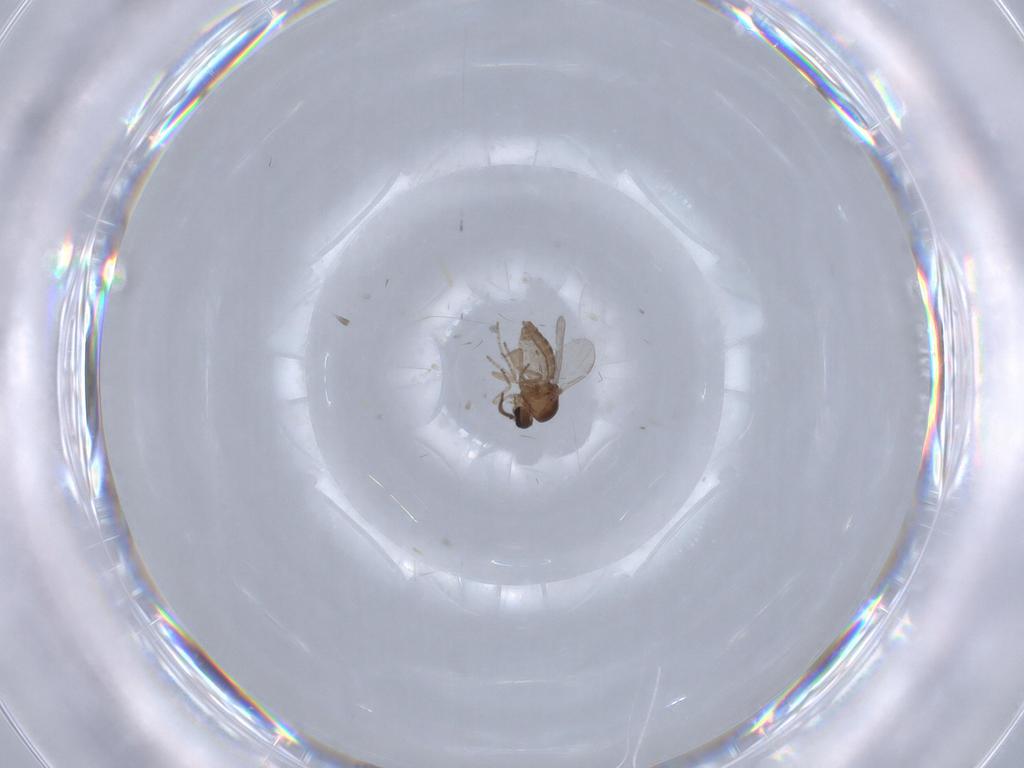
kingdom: Animalia
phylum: Arthropoda
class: Insecta
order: Diptera
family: Ceratopogonidae
